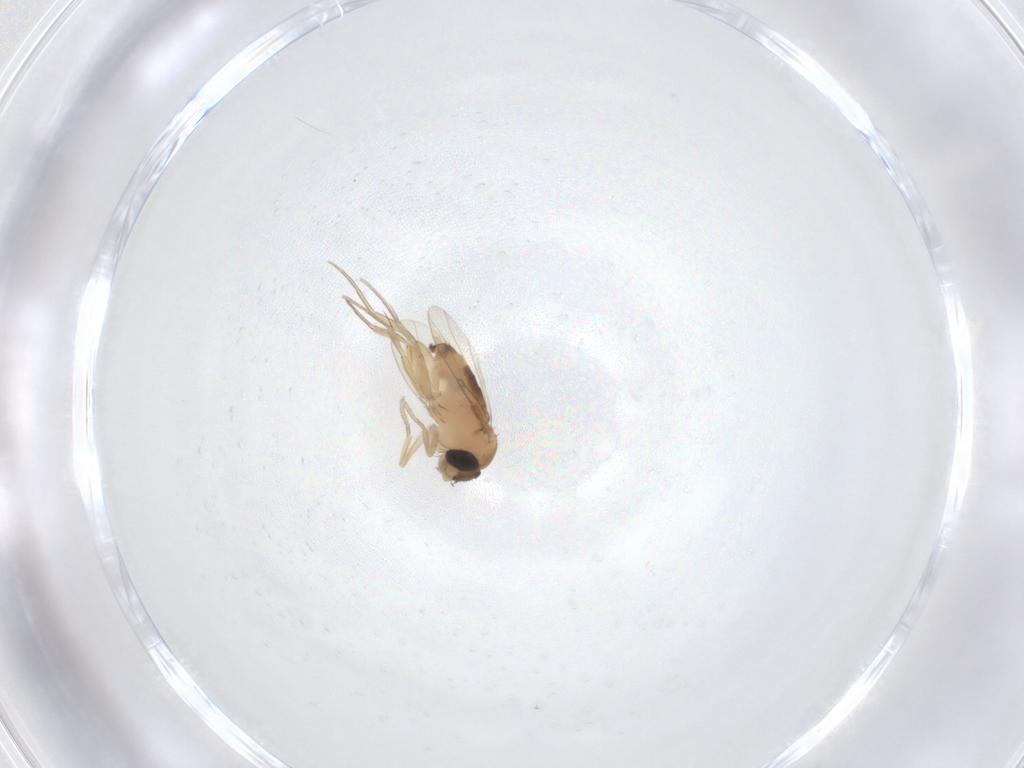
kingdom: Animalia
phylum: Arthropoda
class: Insecta
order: Diptera
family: Phoridae
